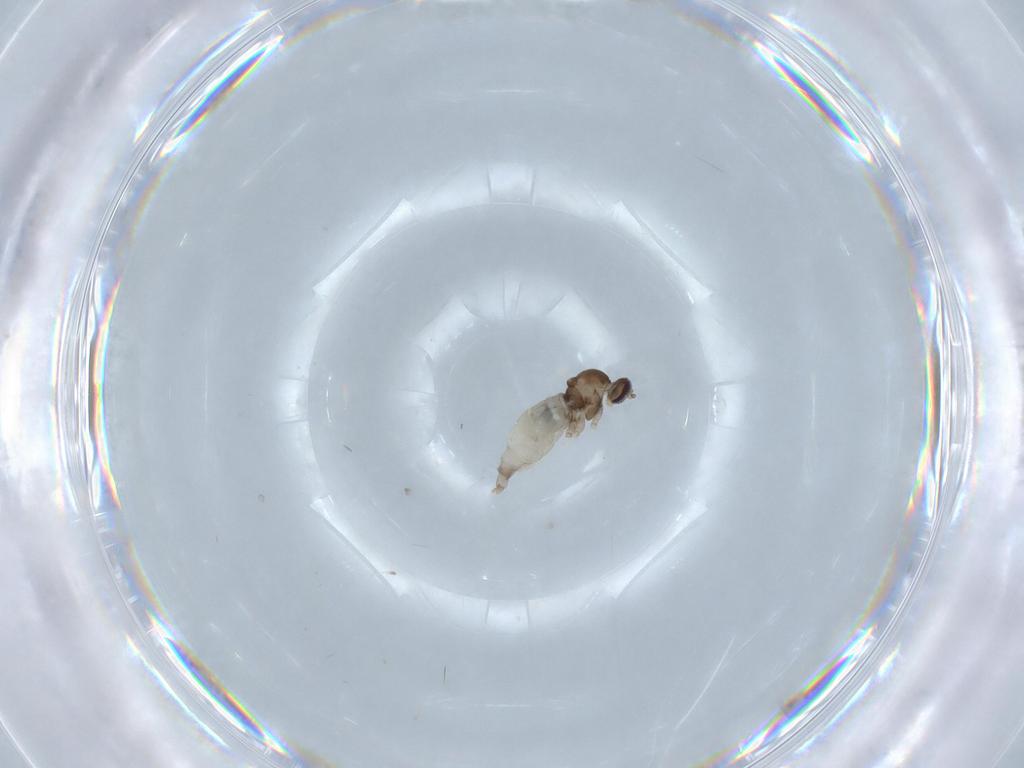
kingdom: Animalia
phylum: Arthropoda
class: Insecta
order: Diptera
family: Cecidomyiidae
